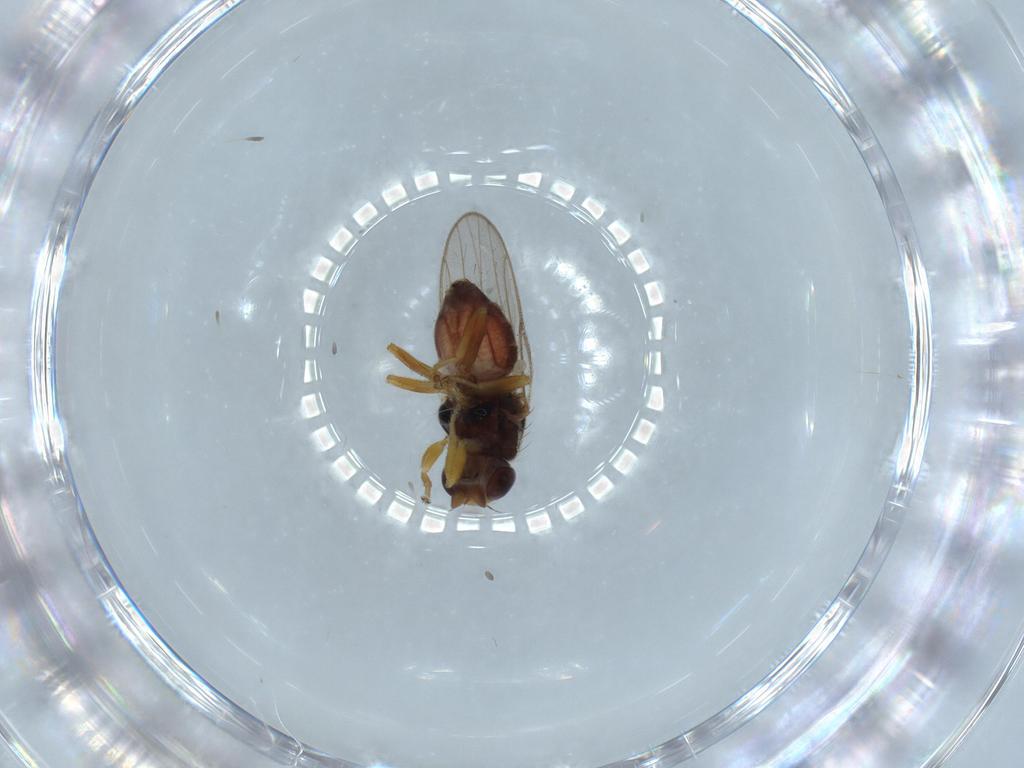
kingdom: Animalia
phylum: Arthropoda
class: Insecta
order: Diptera
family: Chloropidae
